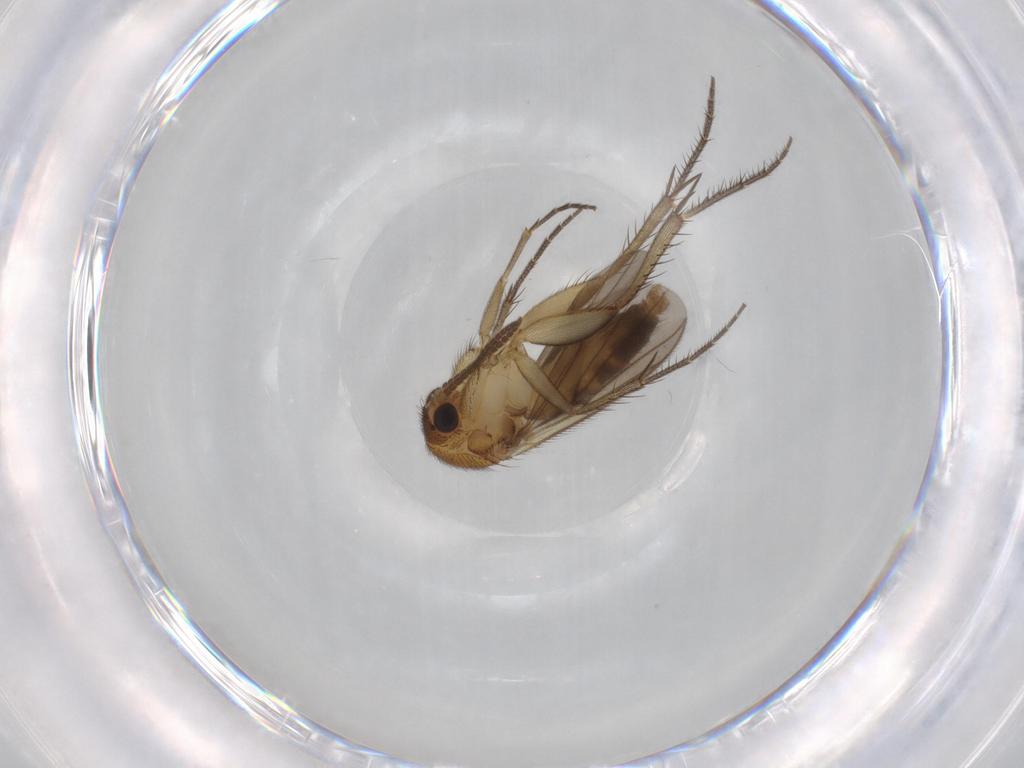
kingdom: Animalia
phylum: Arthropoda
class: Insecta
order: Diptera
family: Mycetophilidae
